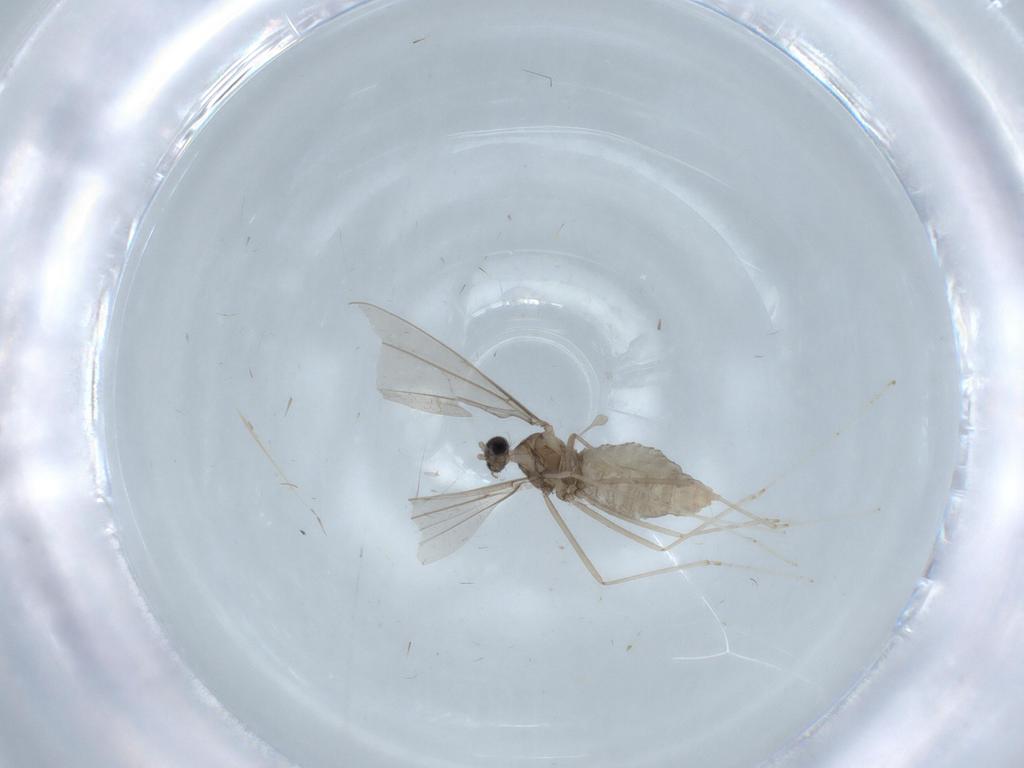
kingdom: Animalia
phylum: Arthropoda
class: Insecta
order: Diptera
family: Cecidomyiidae
